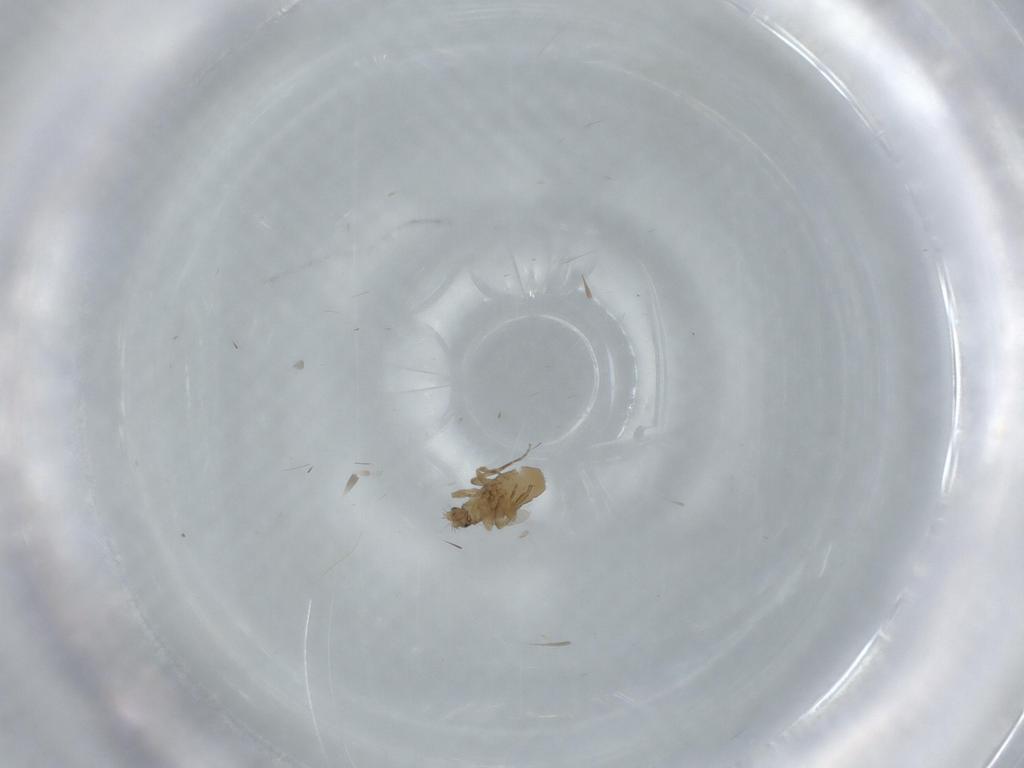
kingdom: Animalia
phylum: Arthropoda
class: Insecta
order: Diptera
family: Phoridae
